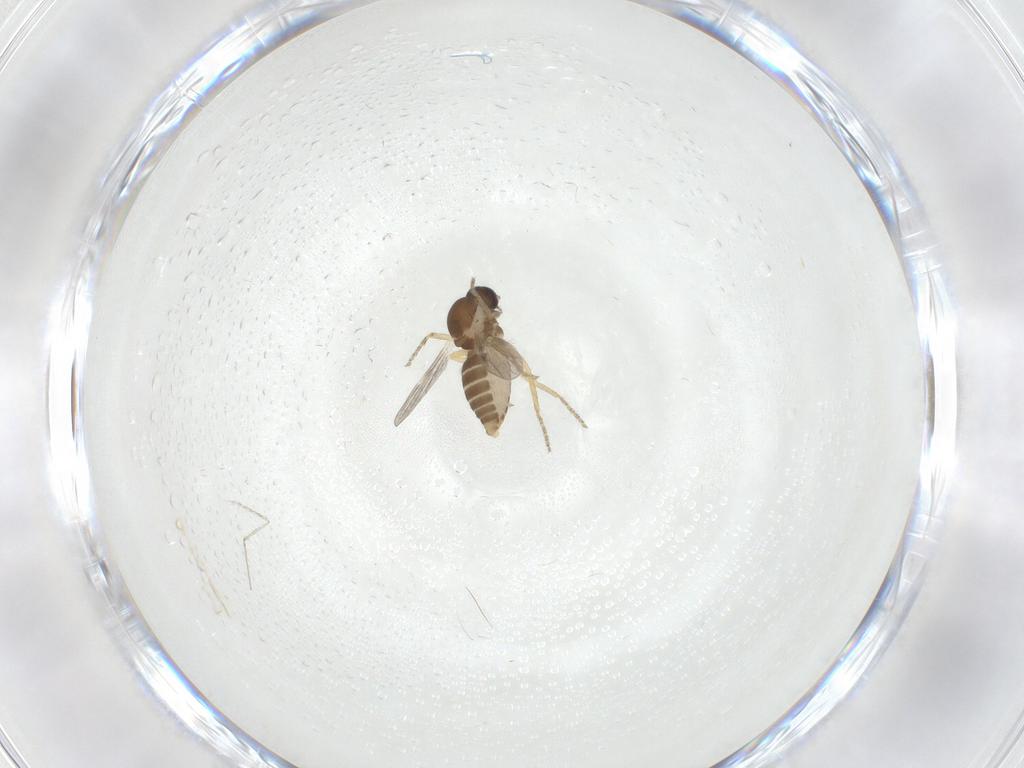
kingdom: Animalia
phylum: Arthropoda
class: Insecta
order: Diptera
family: Ceratopogonidae
